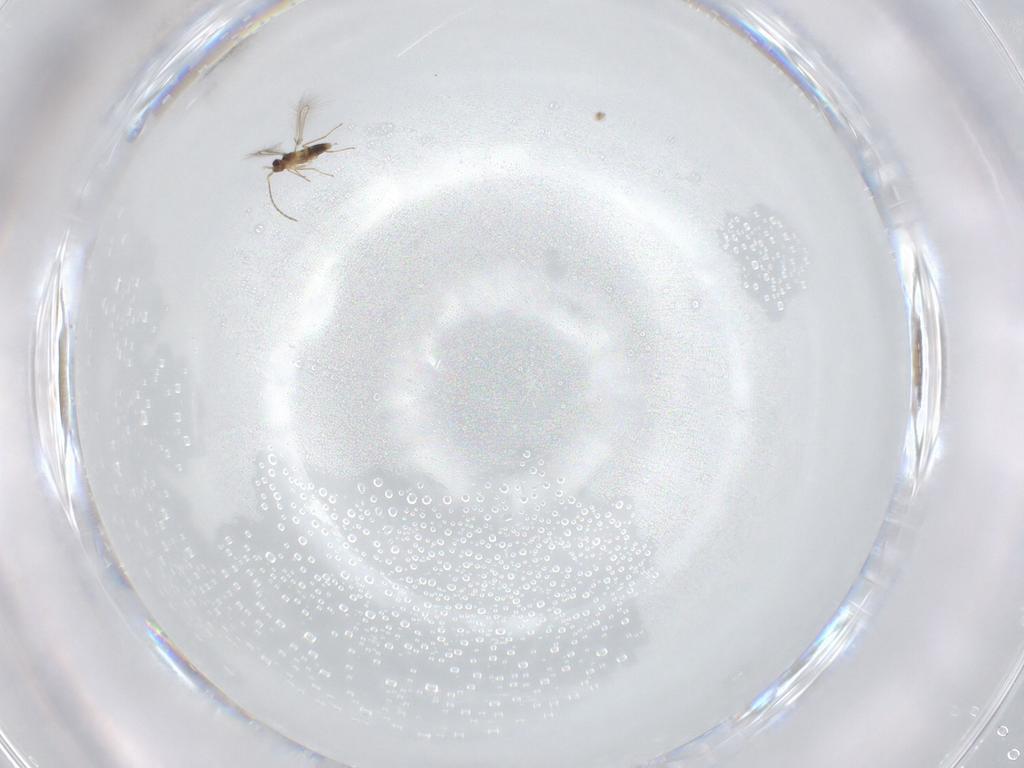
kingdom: Animalia
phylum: Arthropoda
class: Insecta
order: Hymenoptera
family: Mymaridae
